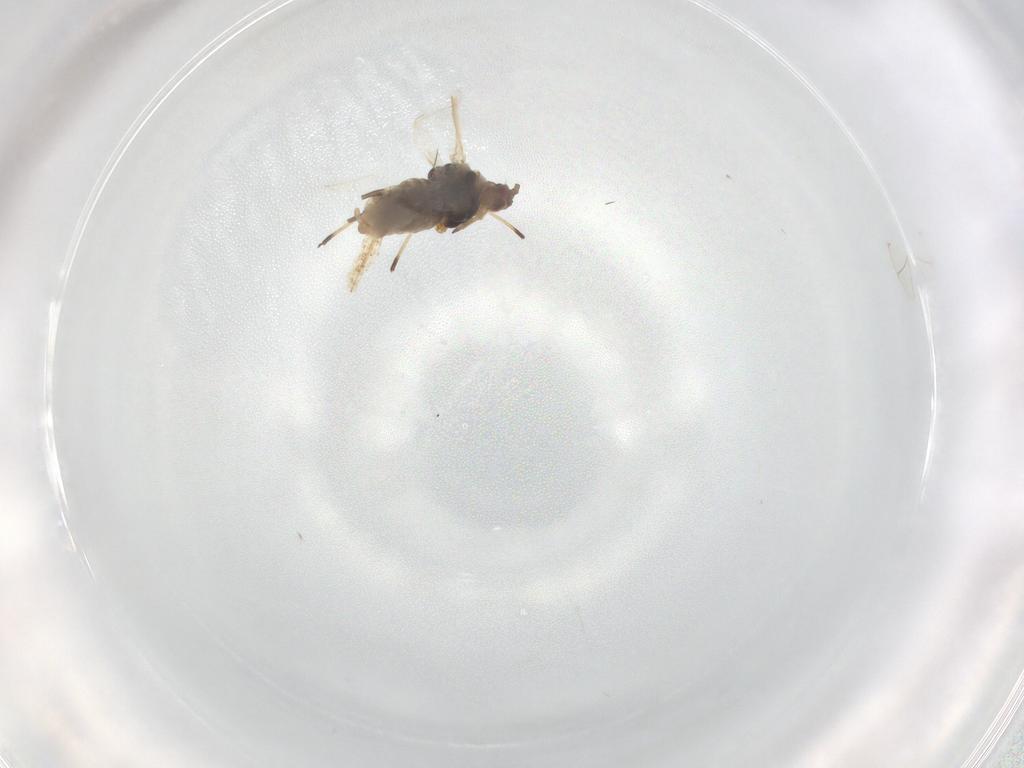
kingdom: Animalia
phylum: Arthropoda
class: Insecta
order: Hemiptera
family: Aphididae
